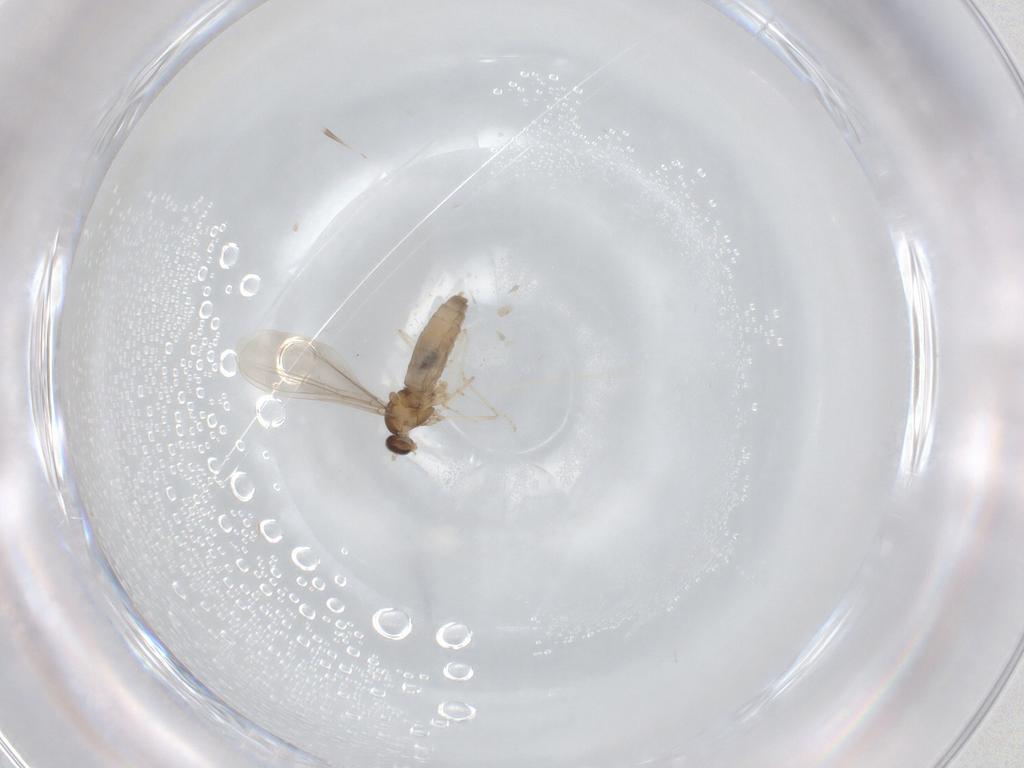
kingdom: Animalia
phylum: Arthropoda
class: Insecta
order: Diptera
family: Cecidomyiidae
